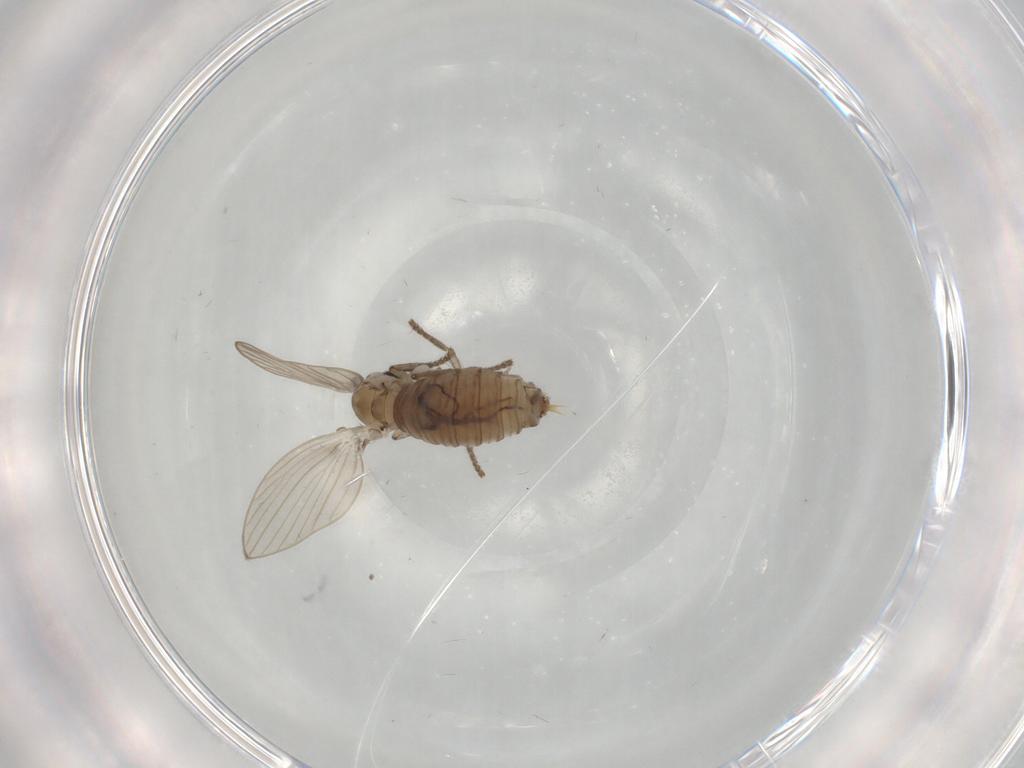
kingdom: Animalia
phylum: Arthropoda
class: Insecta
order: Diptera
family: Psychodidae
